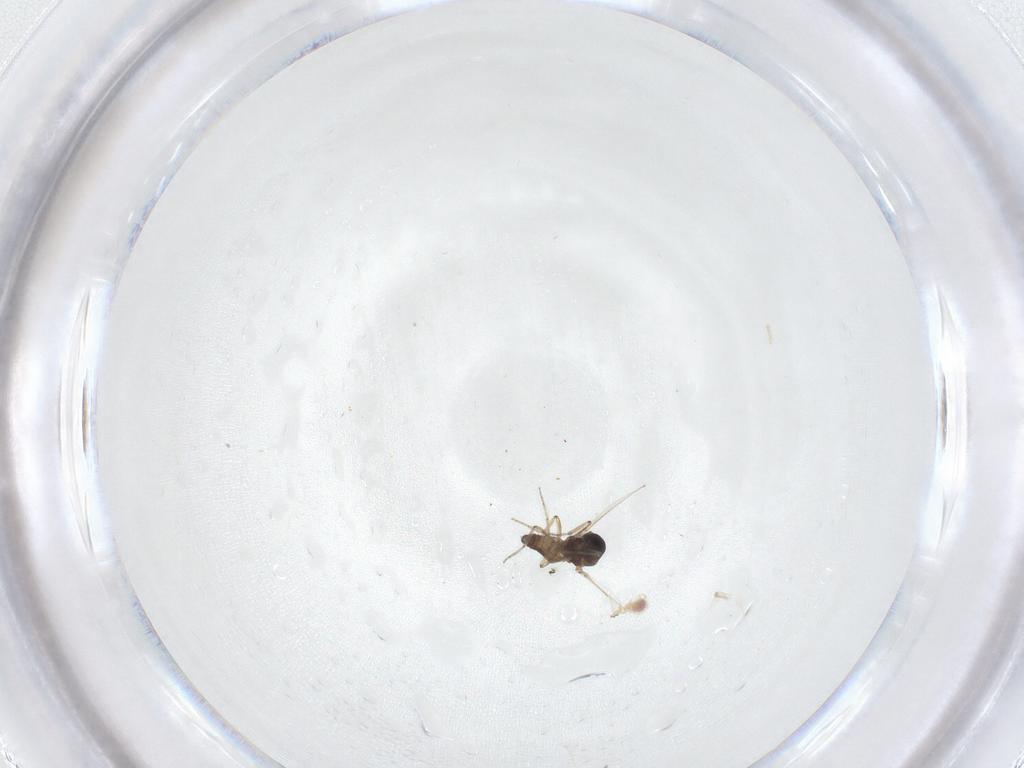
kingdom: Animalia
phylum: Arthropoda
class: Insecta
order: Diptera
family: Ceratopogonidae
